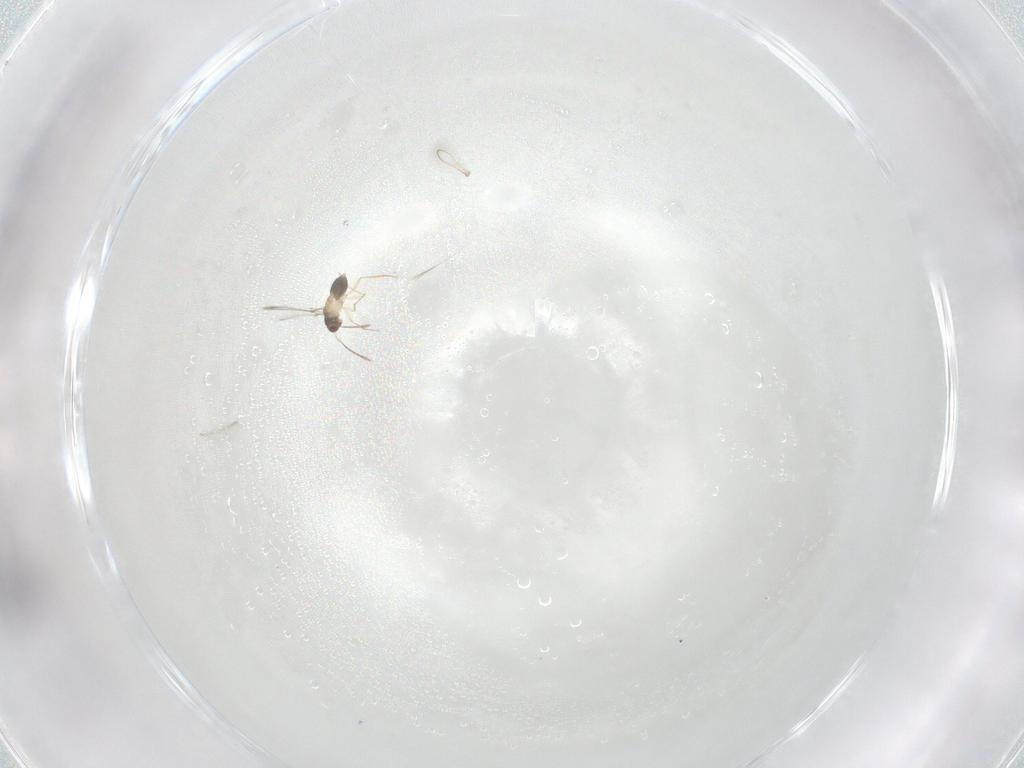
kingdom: Animalia
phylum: Arthropoda
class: Insecta
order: Hymenoptera
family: Mymaridae
